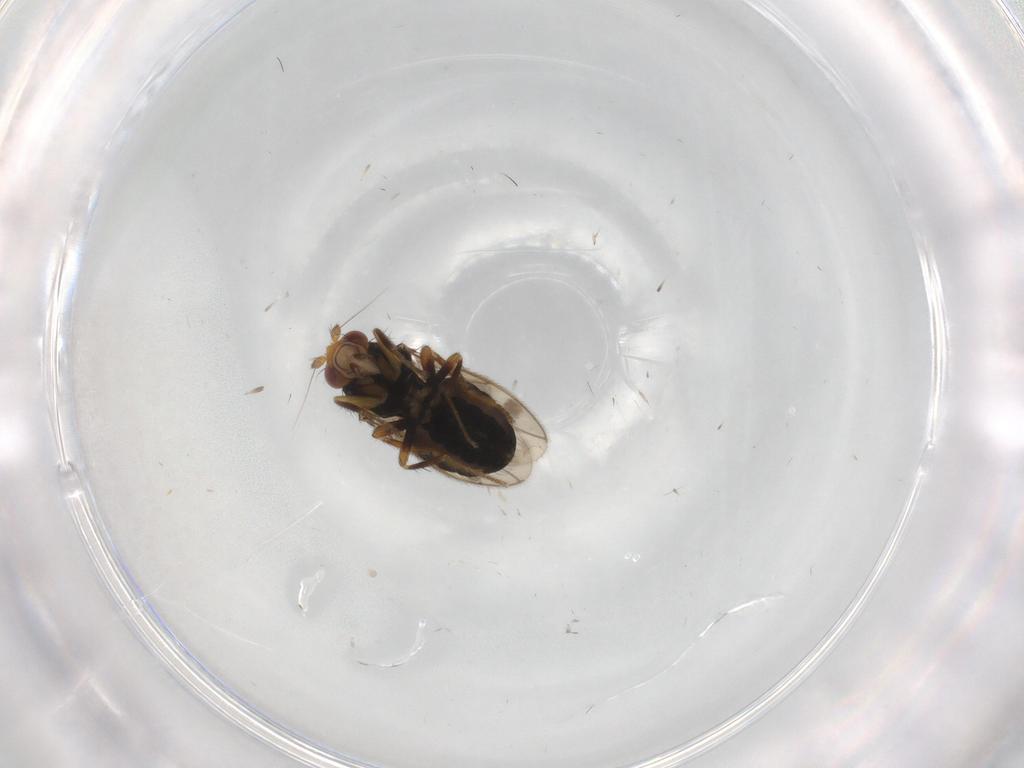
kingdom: Animalia
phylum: Arthropoda
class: Insecta
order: Diptera
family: Sphaeroceridae
